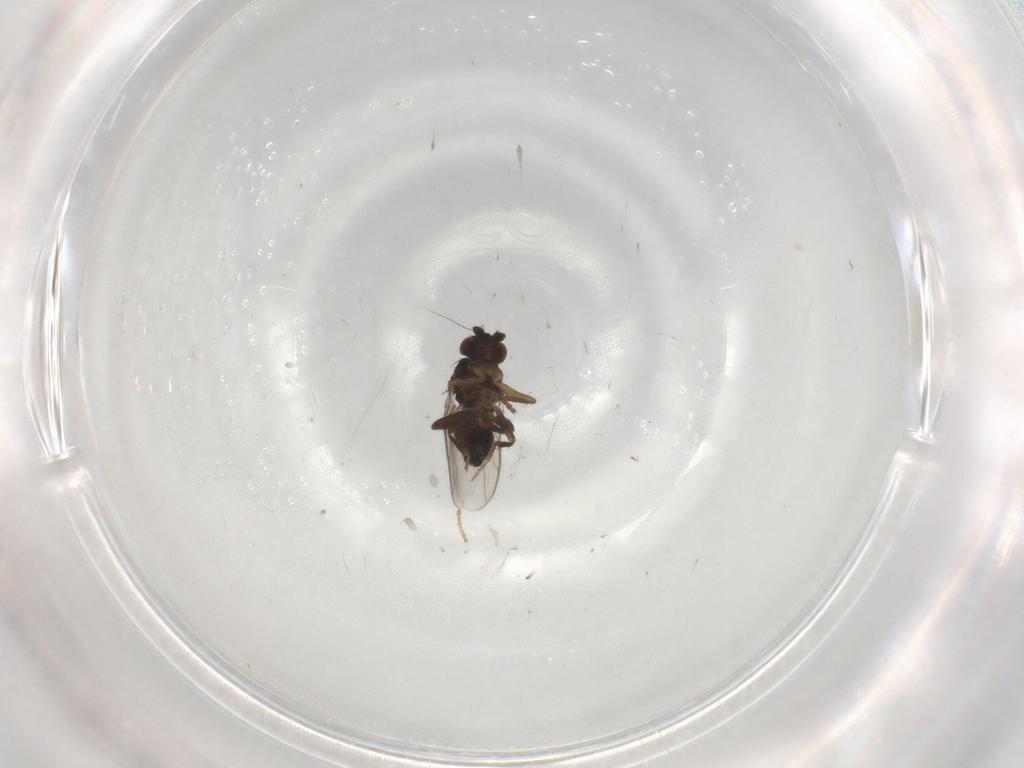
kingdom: Animalia
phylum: Arthropoda
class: Insecta
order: Diptera
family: Sphaeroceridae
